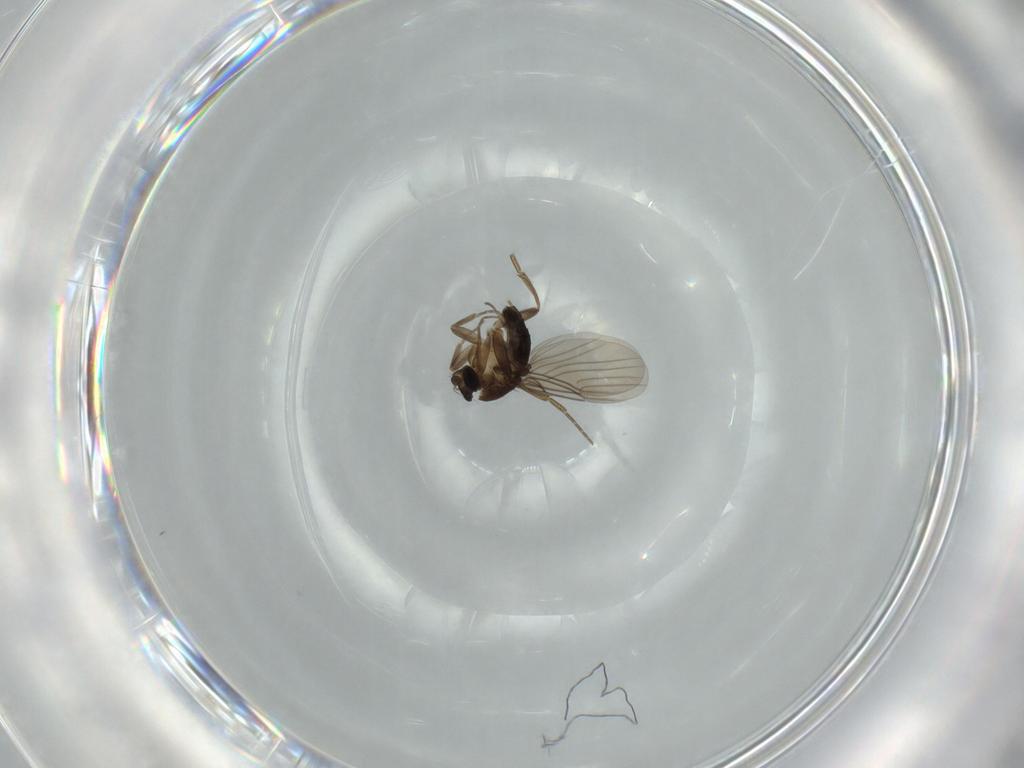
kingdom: Animalia
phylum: Arthropoda
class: Insecta
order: Diptera
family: Phoridae
